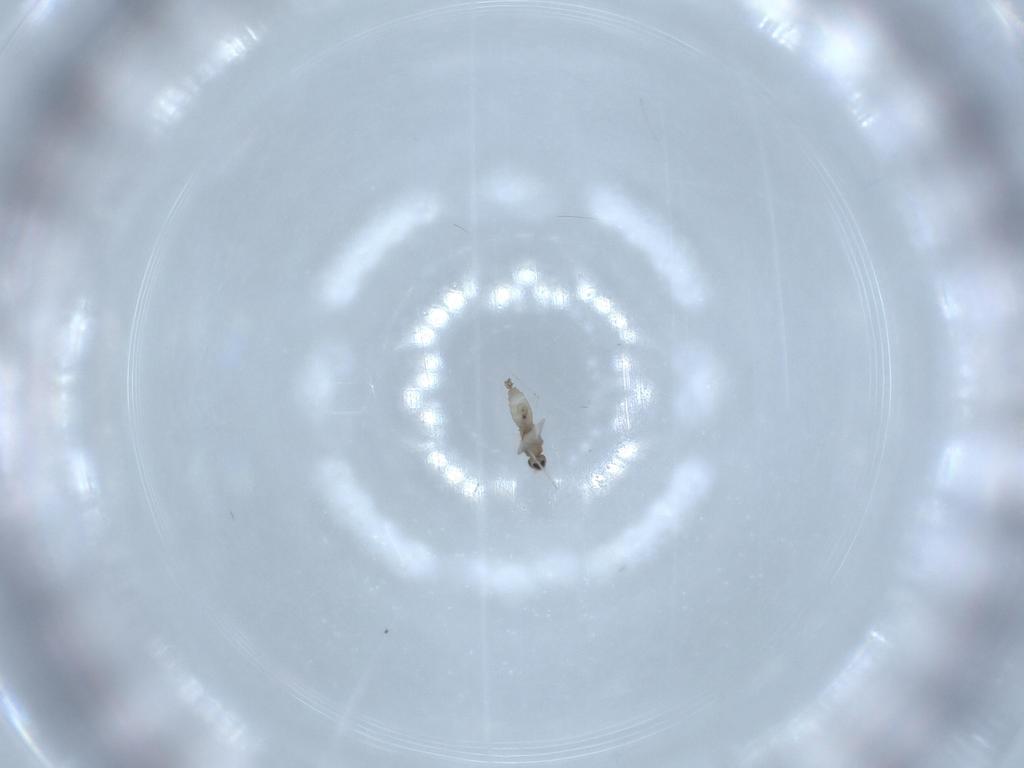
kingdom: Animalia
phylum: Arthropoda
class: Insecta
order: Diptera
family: Cecidomyiidae
